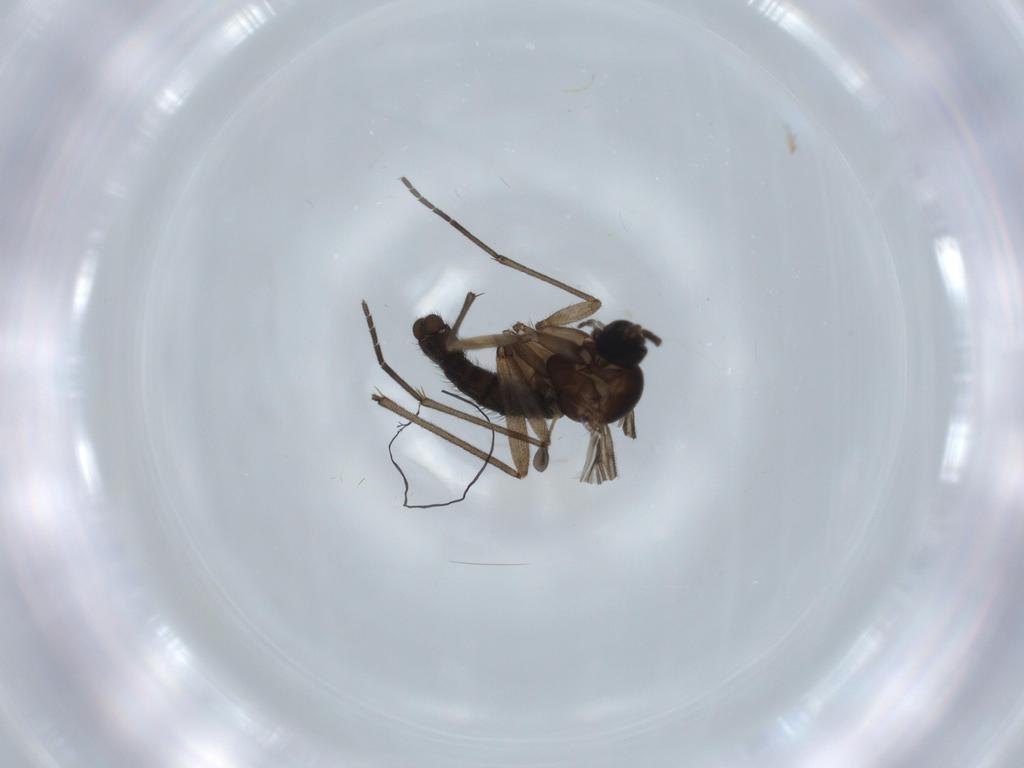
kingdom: Animalia
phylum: Arthropoda
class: Insecta
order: Diptera
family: Sciaridae
